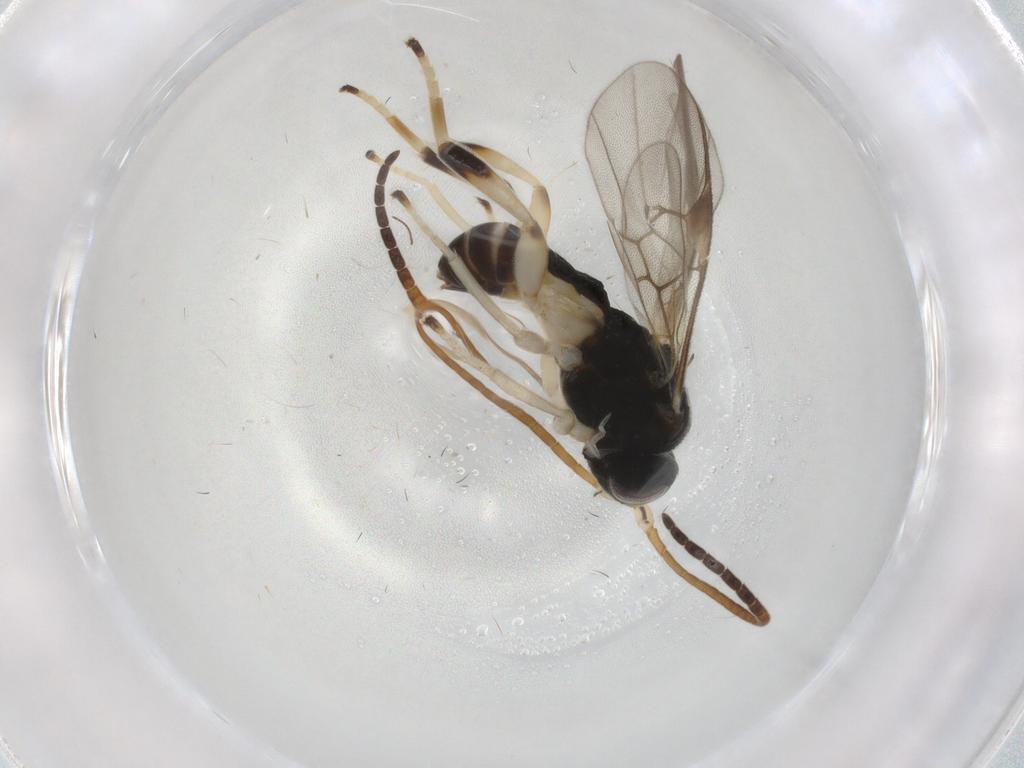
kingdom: Animalia
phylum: Arthropoda
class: Insecta
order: Hymenoptera
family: Braconidae
